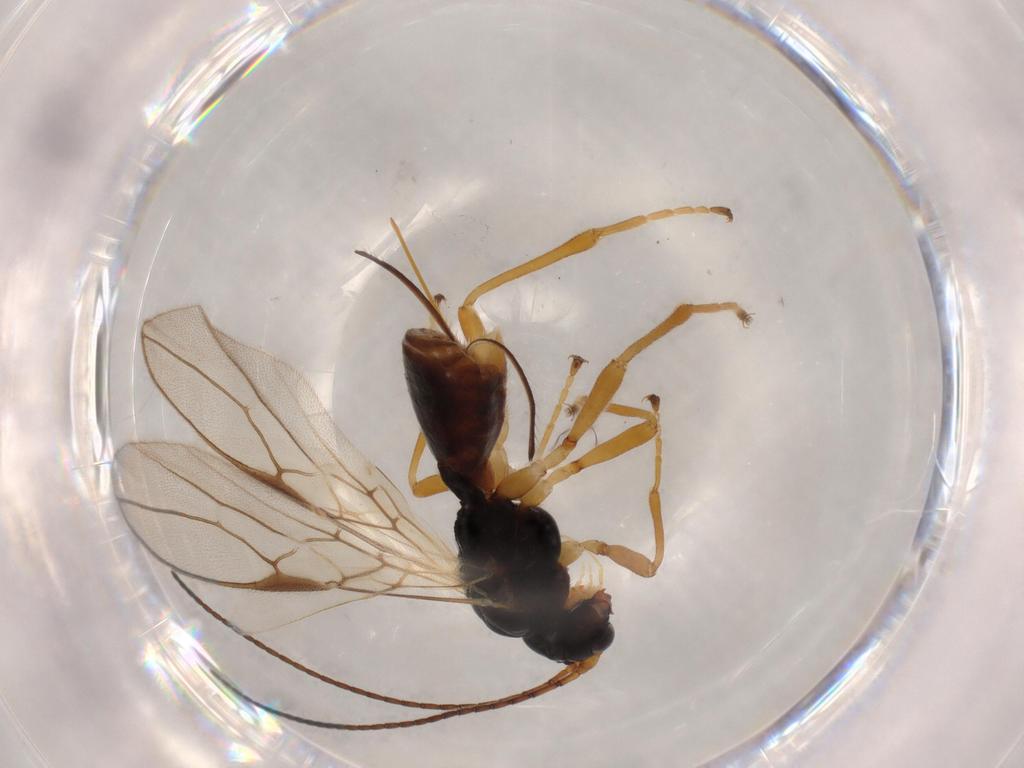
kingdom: Animalia
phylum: Arthropoda
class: Insecta
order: Hymenoptera
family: Braconidae
